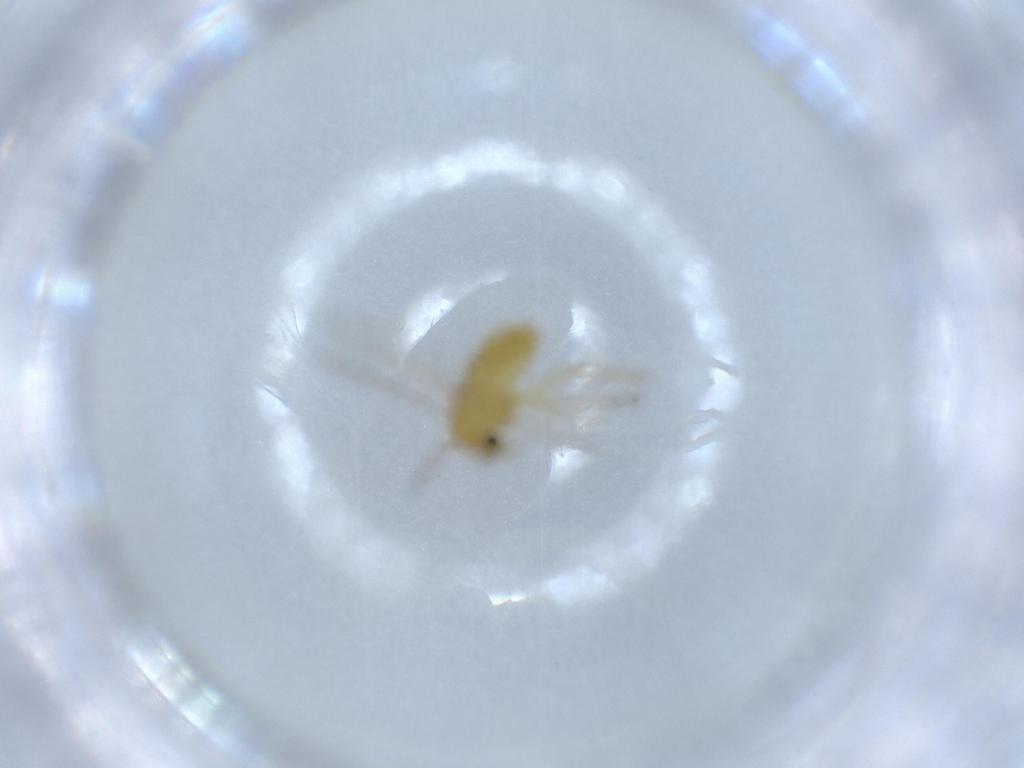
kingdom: Animalia
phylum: Arthropoda
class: Insecta
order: Diptera
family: Chironomidae
